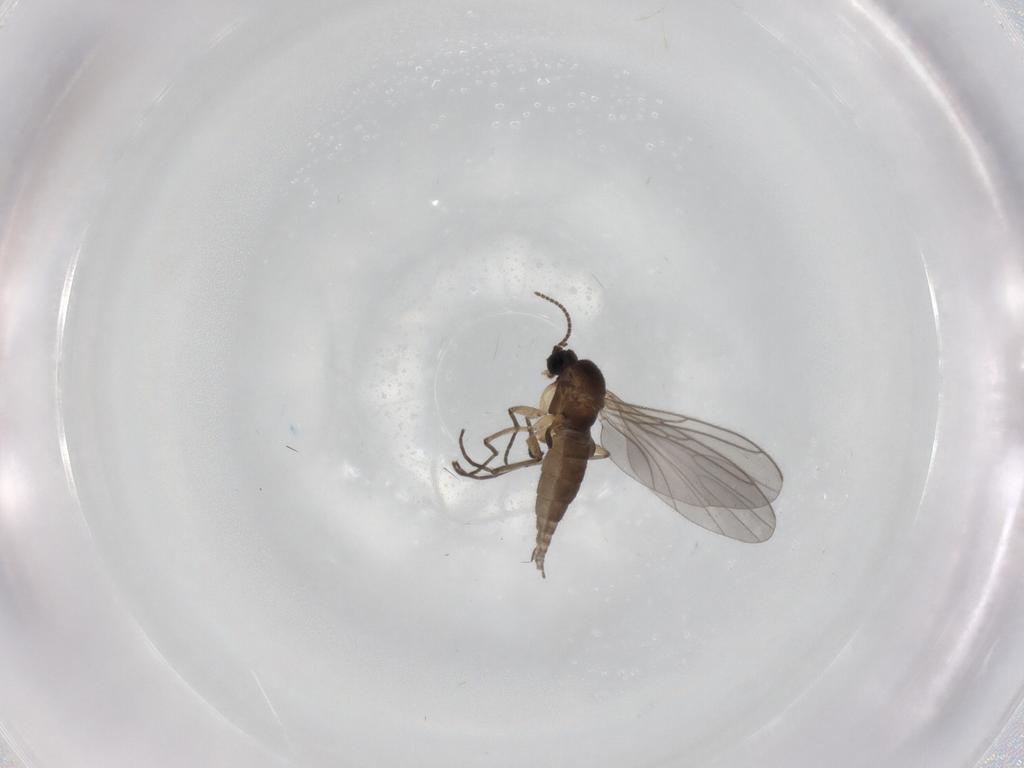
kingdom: Animalia
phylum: Arthropoda
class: Insecta
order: Diptera
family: Sciaridae
